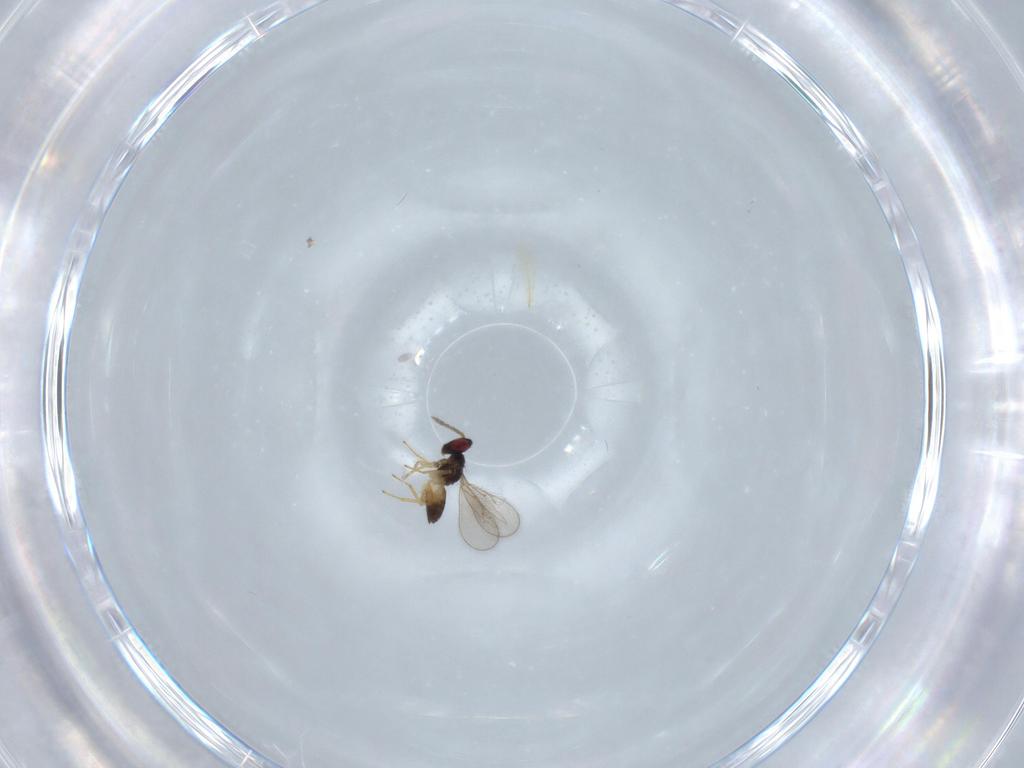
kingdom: Animalia
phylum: Arthropoda
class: Insecta
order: Hymenoptera
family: Eulophidae
